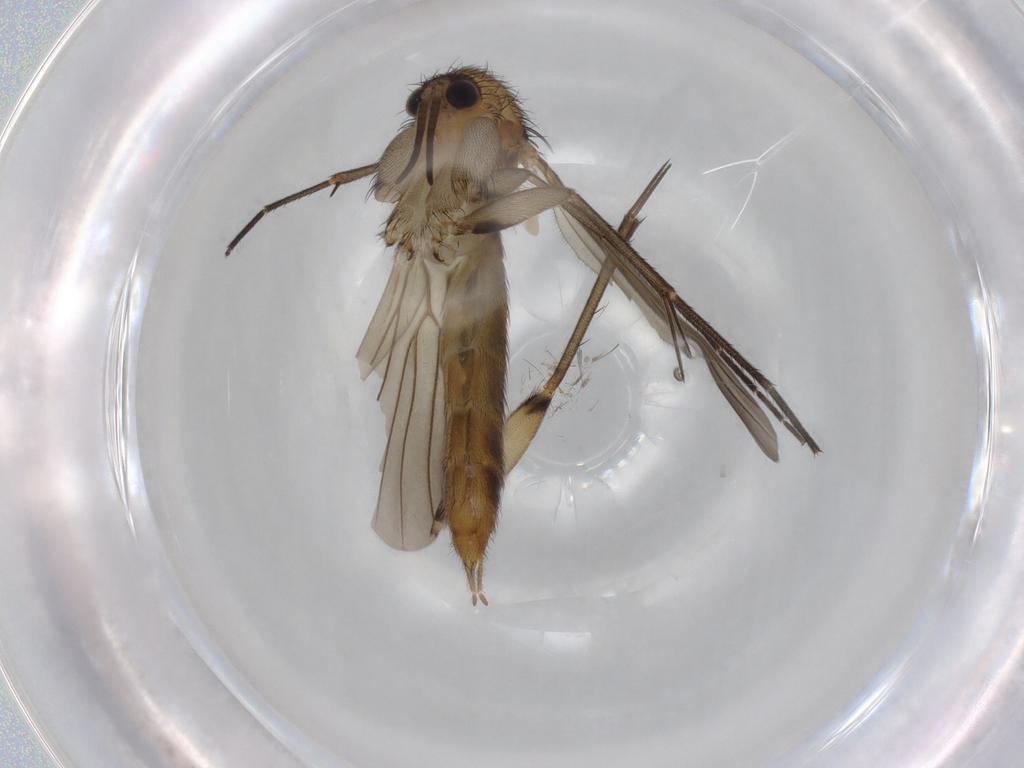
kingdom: Animalia
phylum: Arthropoda
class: Insecta
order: Diptera
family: Mycetophilidae
